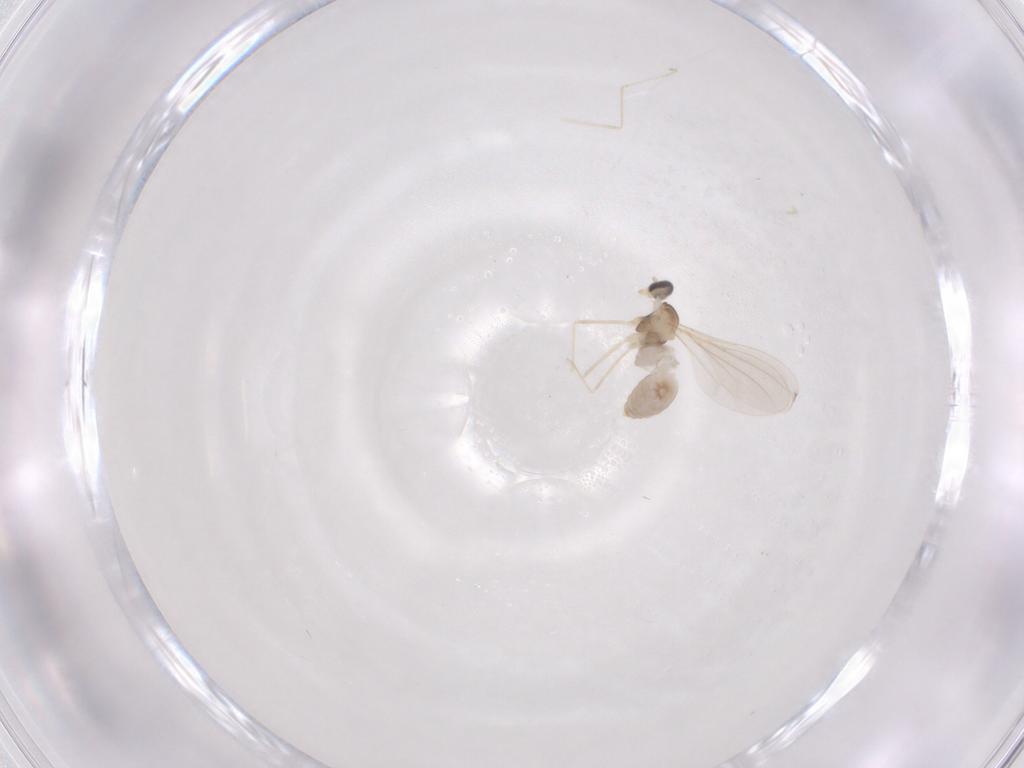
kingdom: Animalia
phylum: Arthropoda
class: Insecta
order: Diptera
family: Cecidomyiidae
